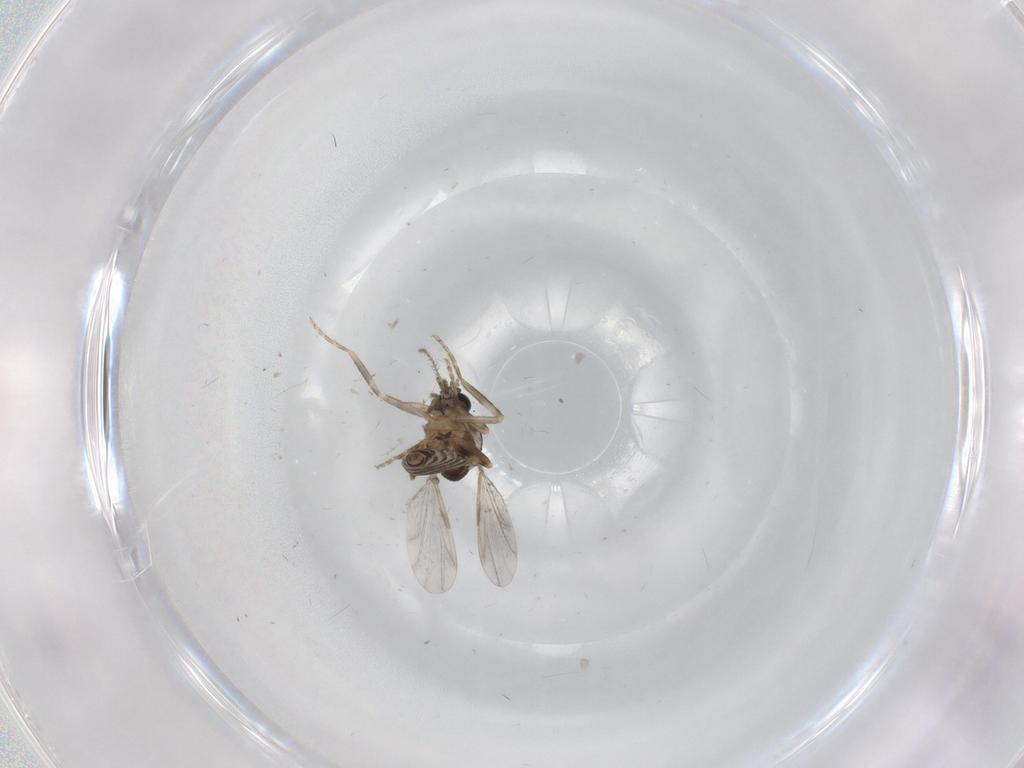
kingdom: Animalia
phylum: Arthropoda
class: Insecta
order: Diptera
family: Ceratopogonidae
